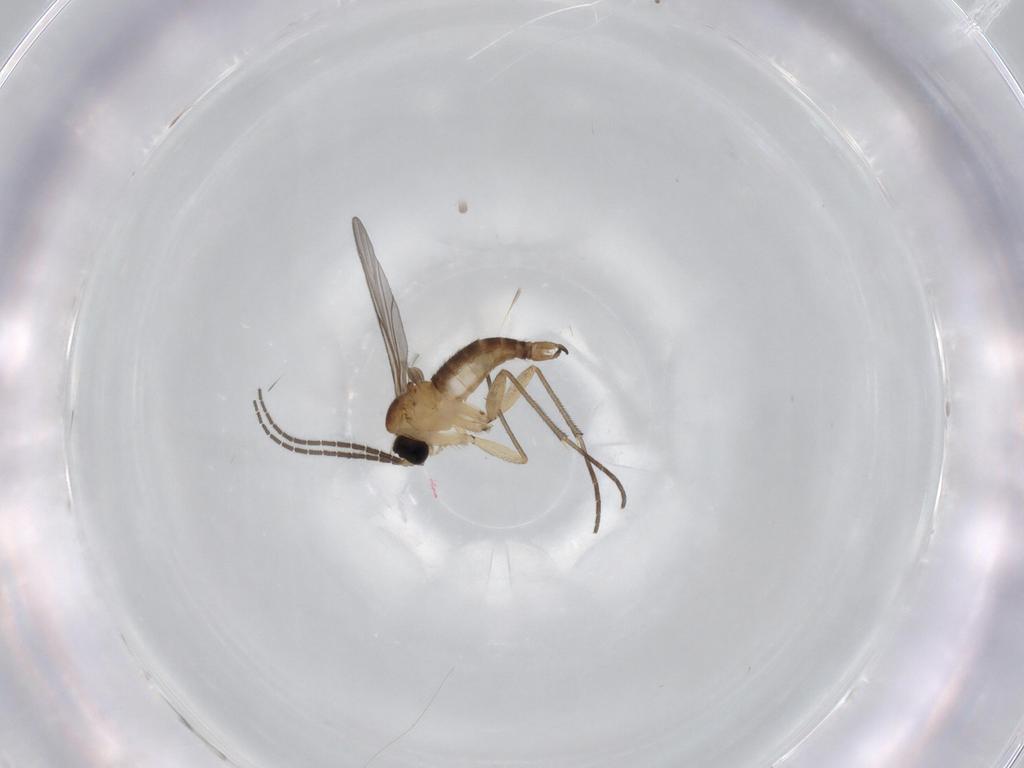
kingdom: Animalia
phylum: Arthropoda
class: Insecta
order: Diptera
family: Sciaridae
